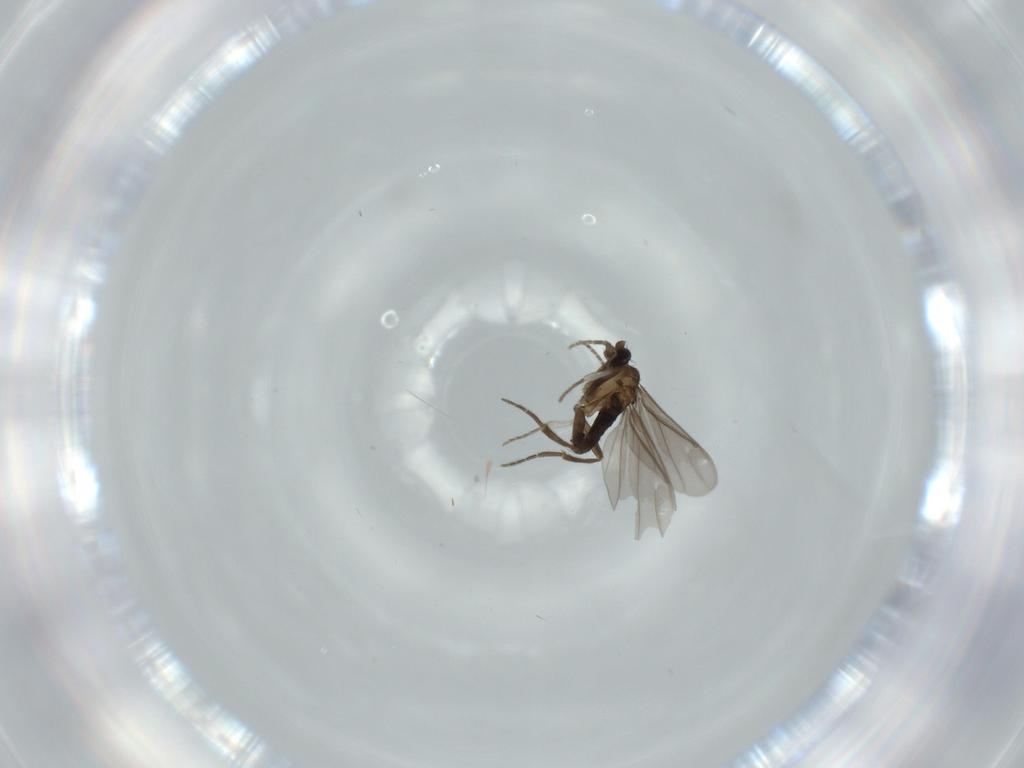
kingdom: Animalia
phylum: Arthropoda
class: Insecta
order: Diptera
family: Phoridae
